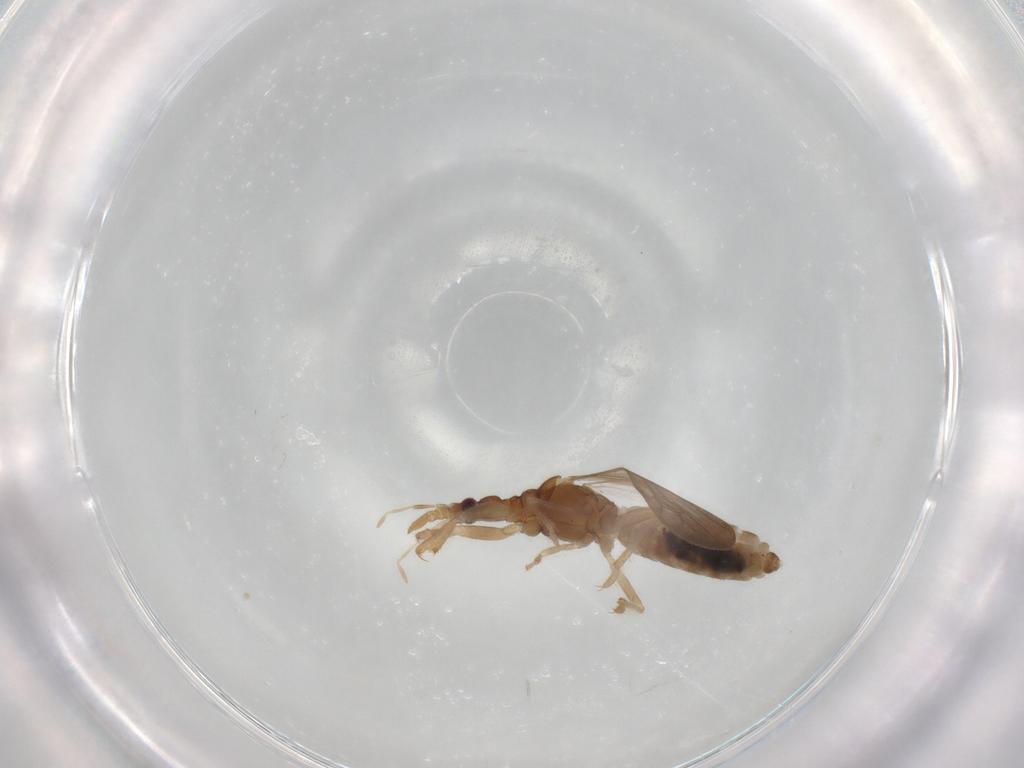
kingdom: Animalia
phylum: Arthropoda
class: Insecta
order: Hemiptera
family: Enicocephalidae
